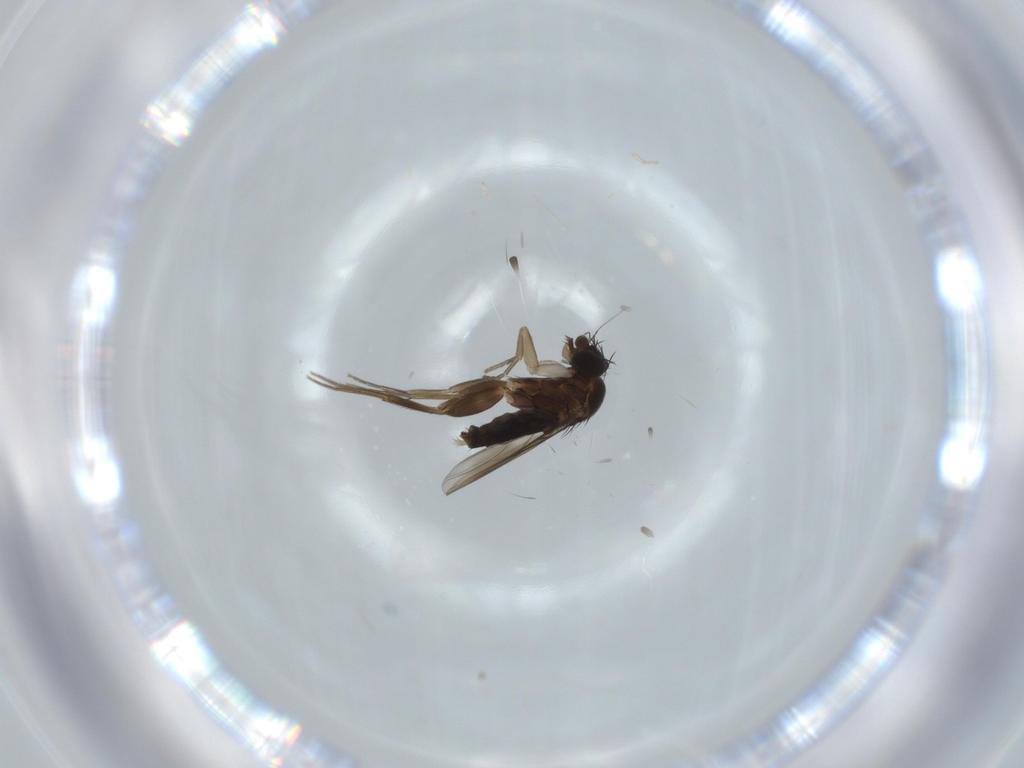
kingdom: Animalia
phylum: Arthropoda
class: Insecta
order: Diptera
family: Phoridae
